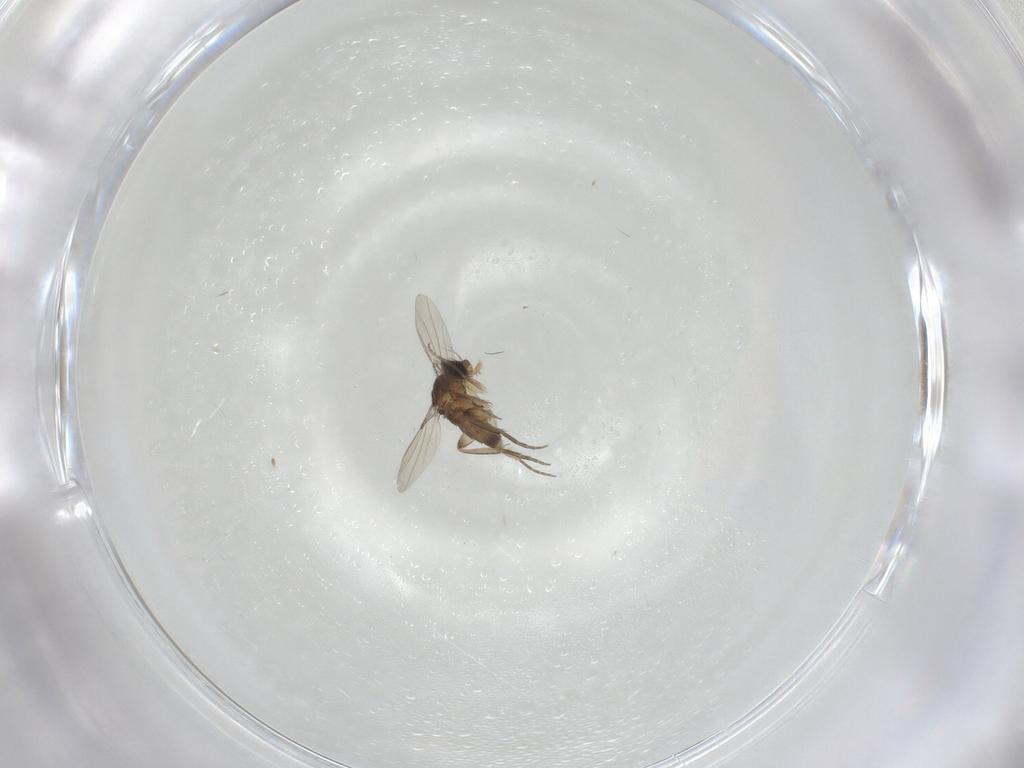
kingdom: Animalia
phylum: Arthropoda
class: Insecta
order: Diptera
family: Phoridae
